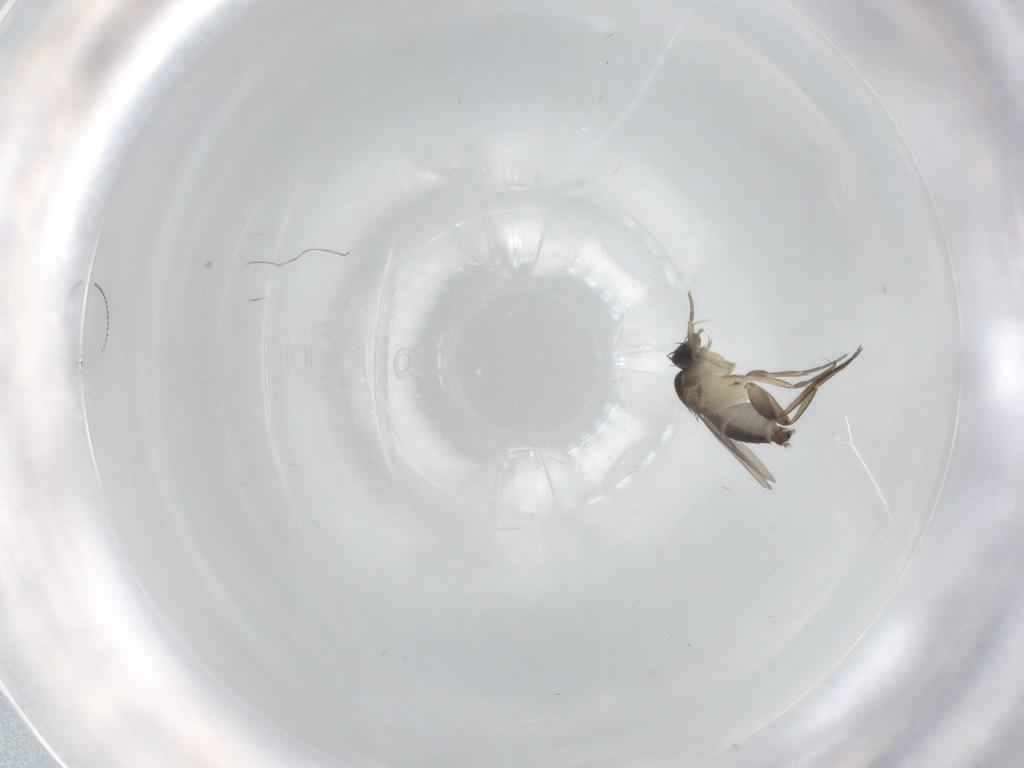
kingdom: Animalia
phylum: Arthropoda
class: Insecta
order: Diptera
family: Phoridae
